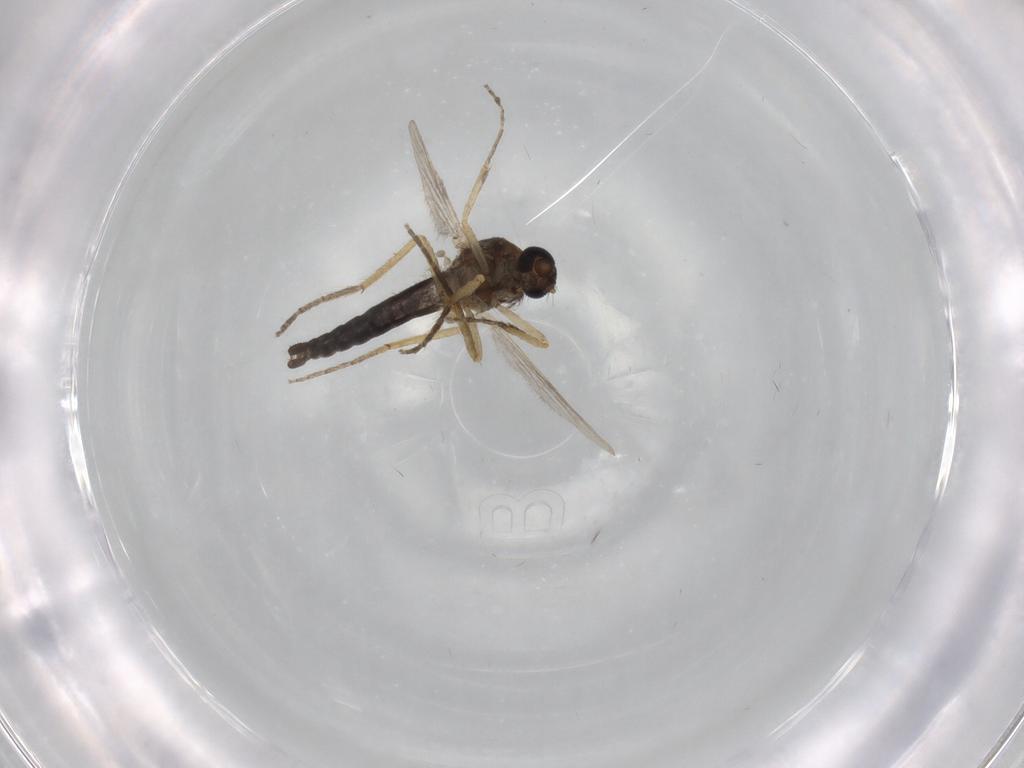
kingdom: Animalia
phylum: Arthropoda
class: Insecta
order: Diptera
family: Ceratopogonidae
